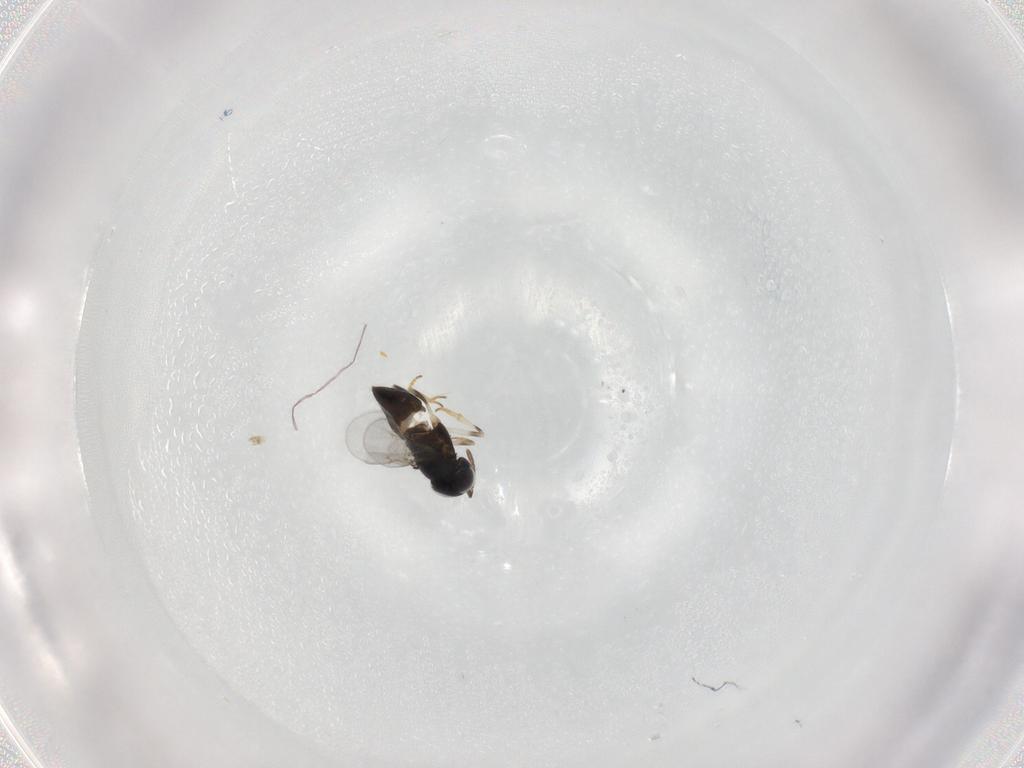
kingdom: Animalia
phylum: Arthropoda
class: Insecta
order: Hymenoptera
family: Encyrtidae
